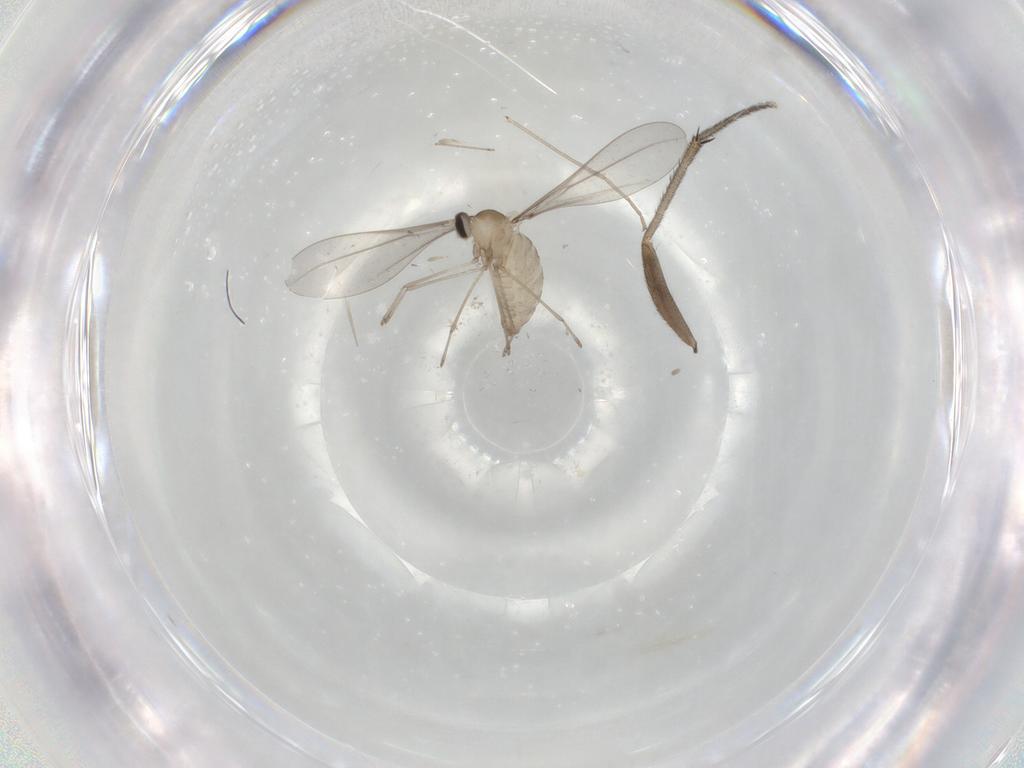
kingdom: Animalia
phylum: Arthropoda
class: Insecta
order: Diptera
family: Cecidomyiidae
